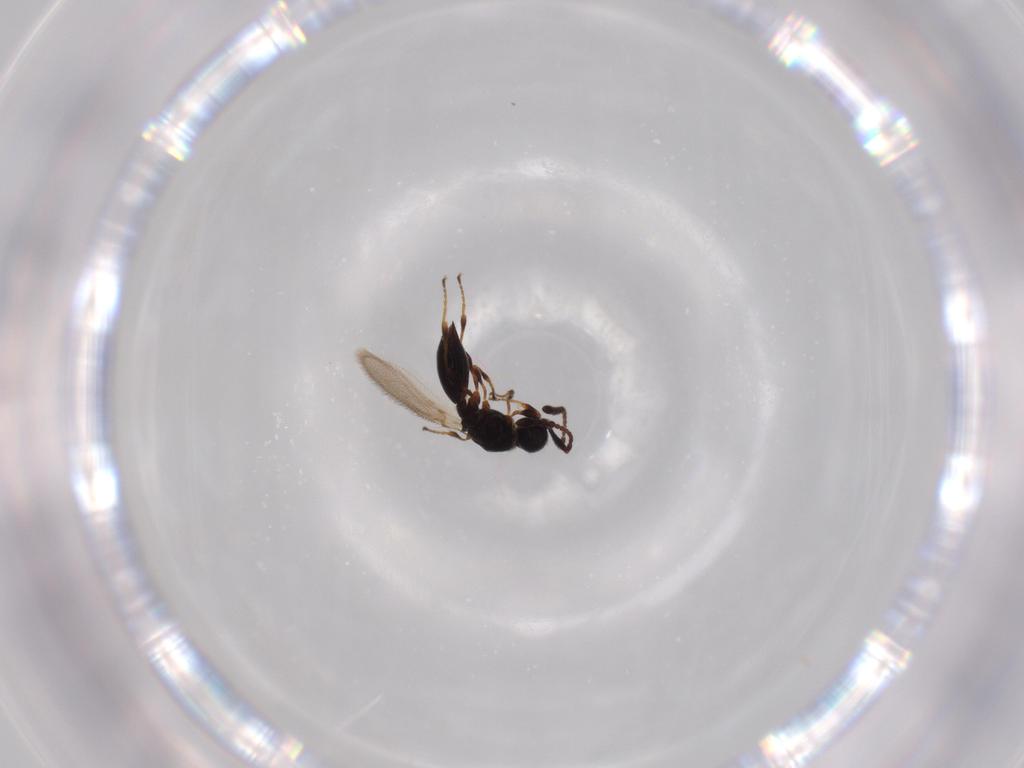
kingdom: Animalia
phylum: Arthropoda
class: Insecta
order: Hymenoptera
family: Diapriidae
